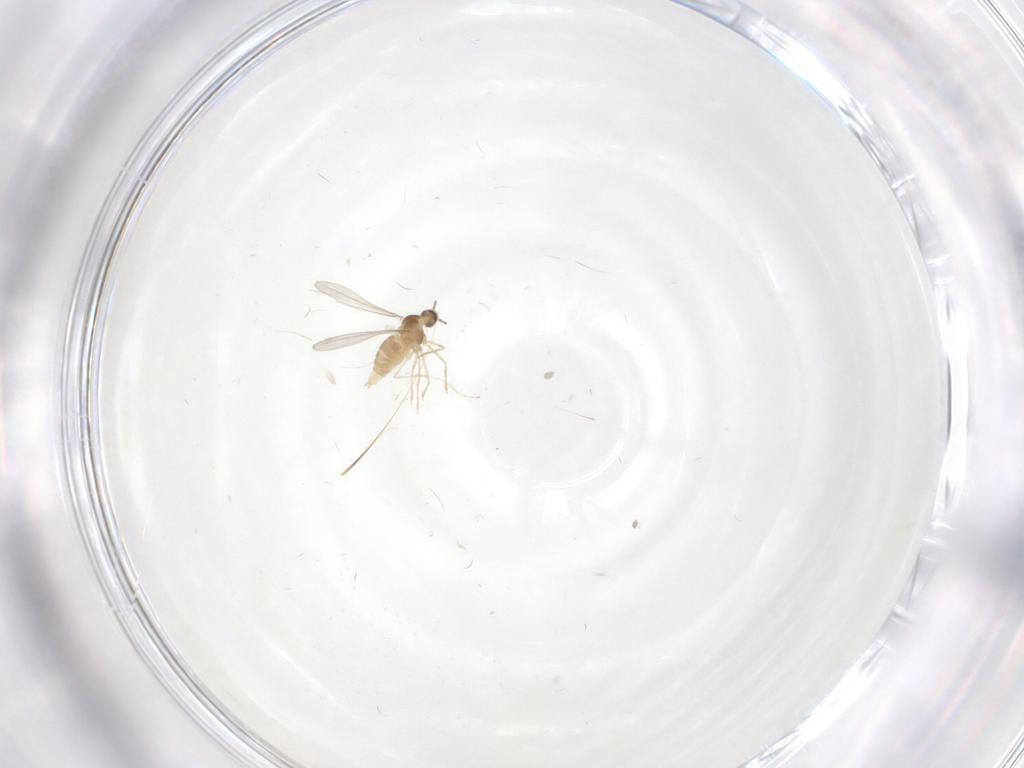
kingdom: Animalia
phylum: Arthropoda
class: Insecta
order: Diptera
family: Cecidomyiidae
